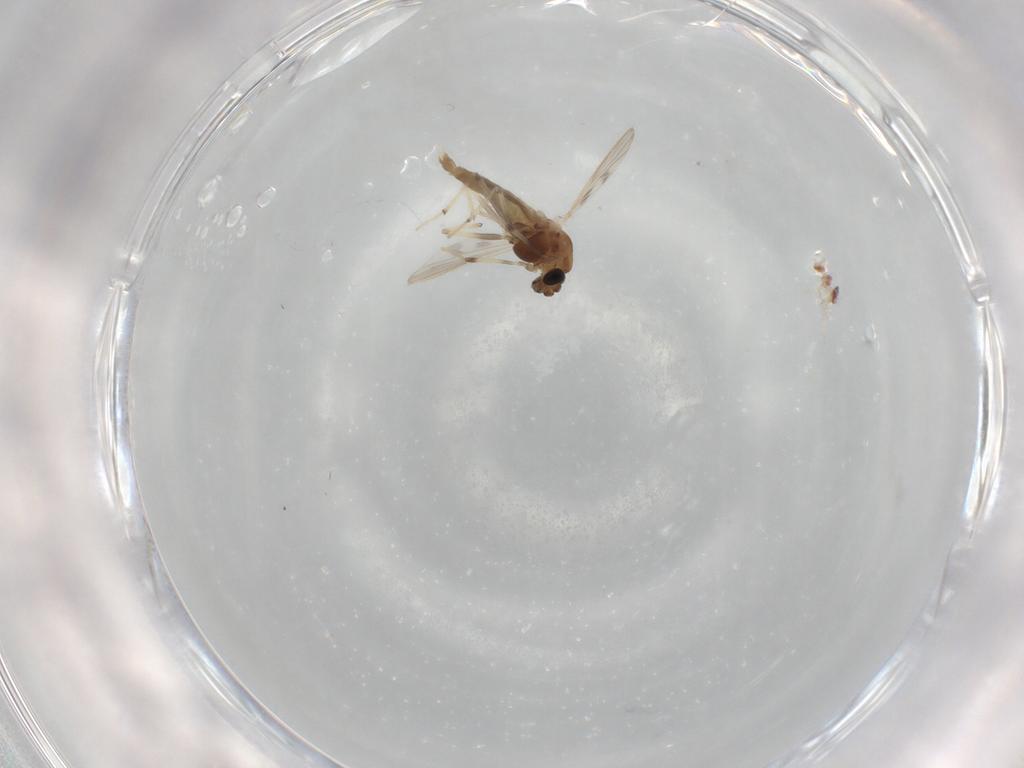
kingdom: Animalia
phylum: Arthropoda
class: Insecta
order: Diptera
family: Chironomidae
